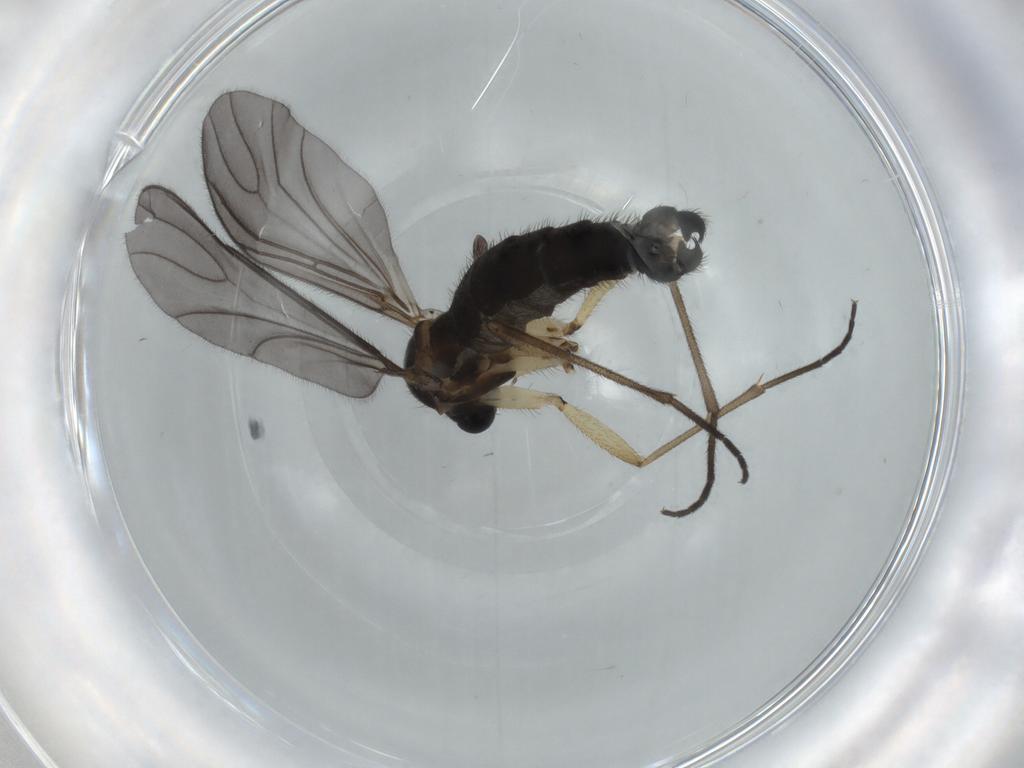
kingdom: Animalia
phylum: Arthropoda
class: Insecta
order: Diptera
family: Sciaridae
